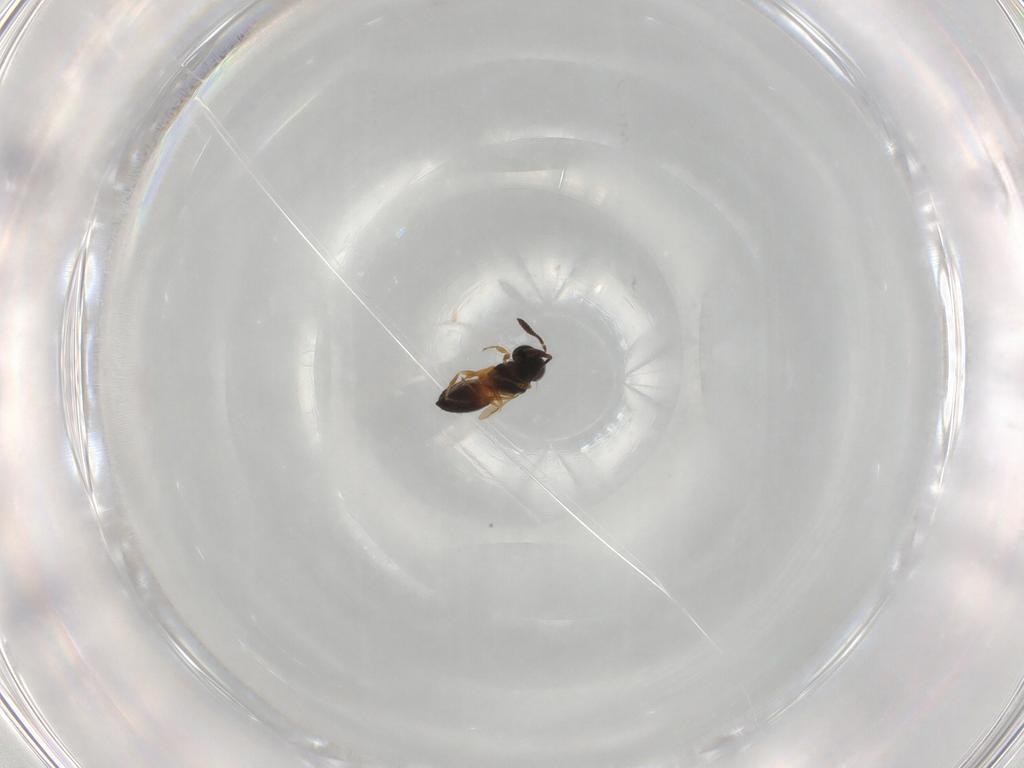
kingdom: Animalia
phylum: Arthropoda
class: Insecta
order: Hymenoptera
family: Scelionidae
